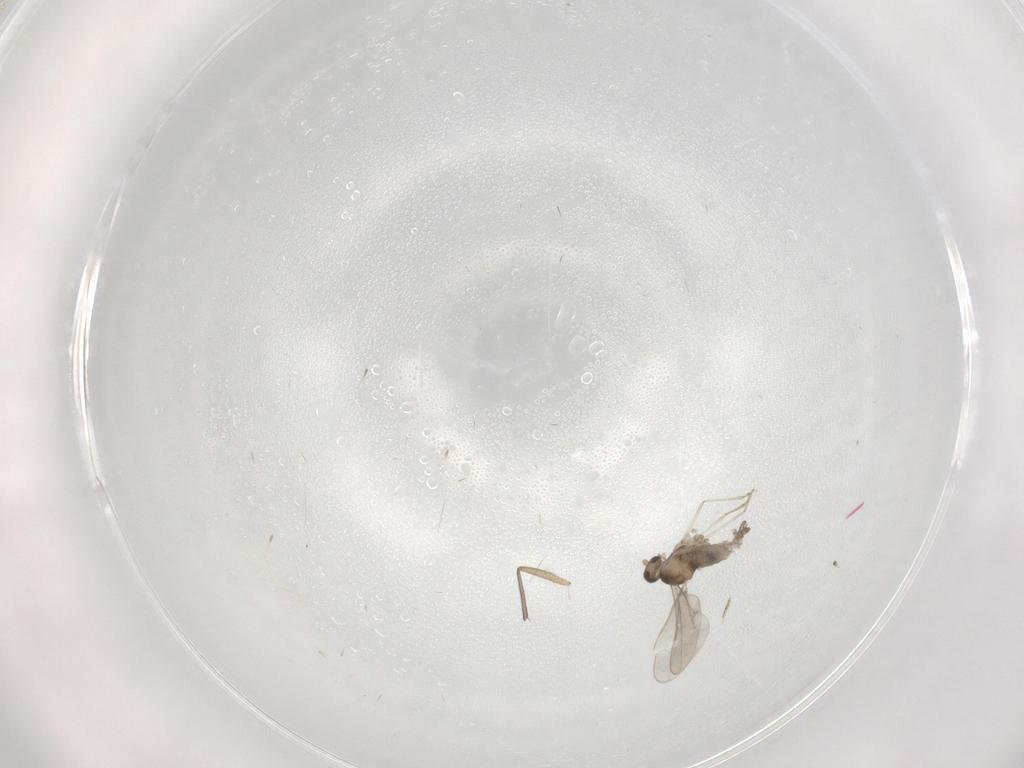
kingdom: Animalia
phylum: Arthropoda
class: Insecta
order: Diptera
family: Cecidomyiidae
